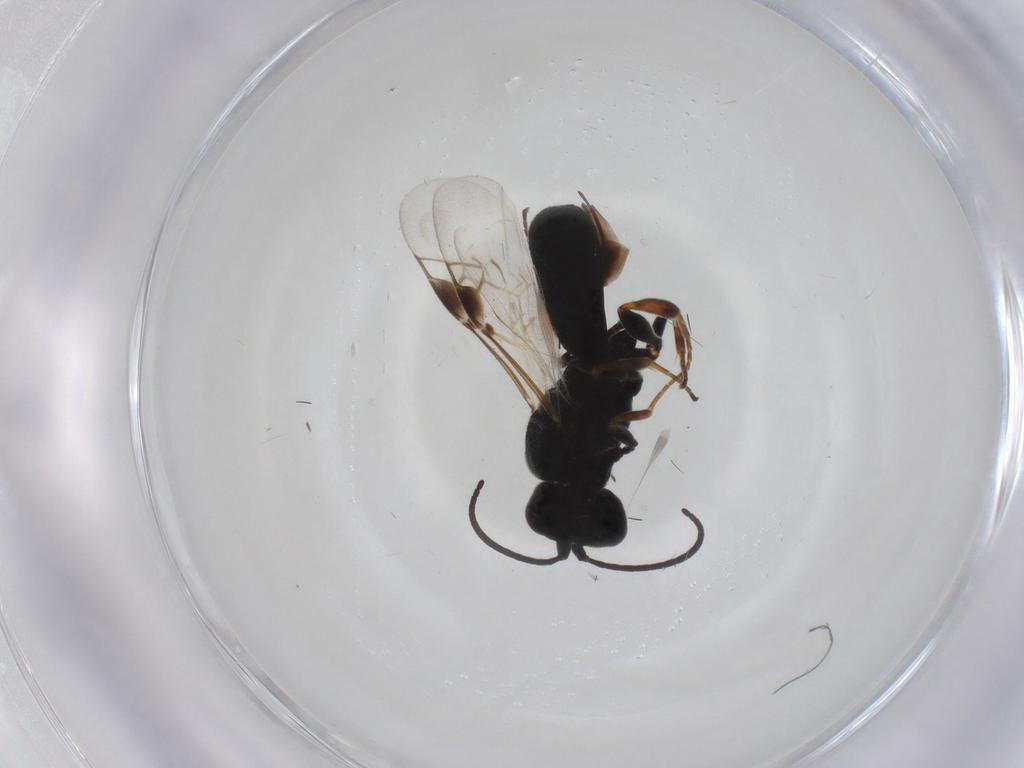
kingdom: Animalia
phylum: Arthropoda
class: Insecta
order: Hymenoptera
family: Braconidae
